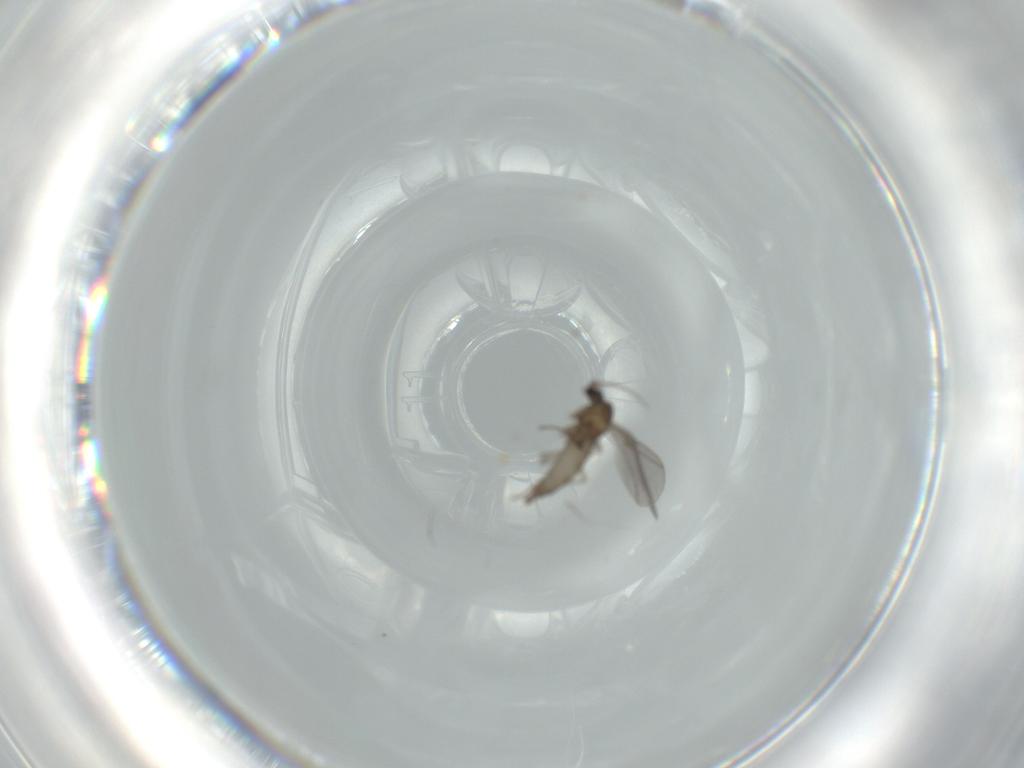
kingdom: Animalia
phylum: Arthropoda
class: Insecta
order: Diptera
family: Sciaridae
